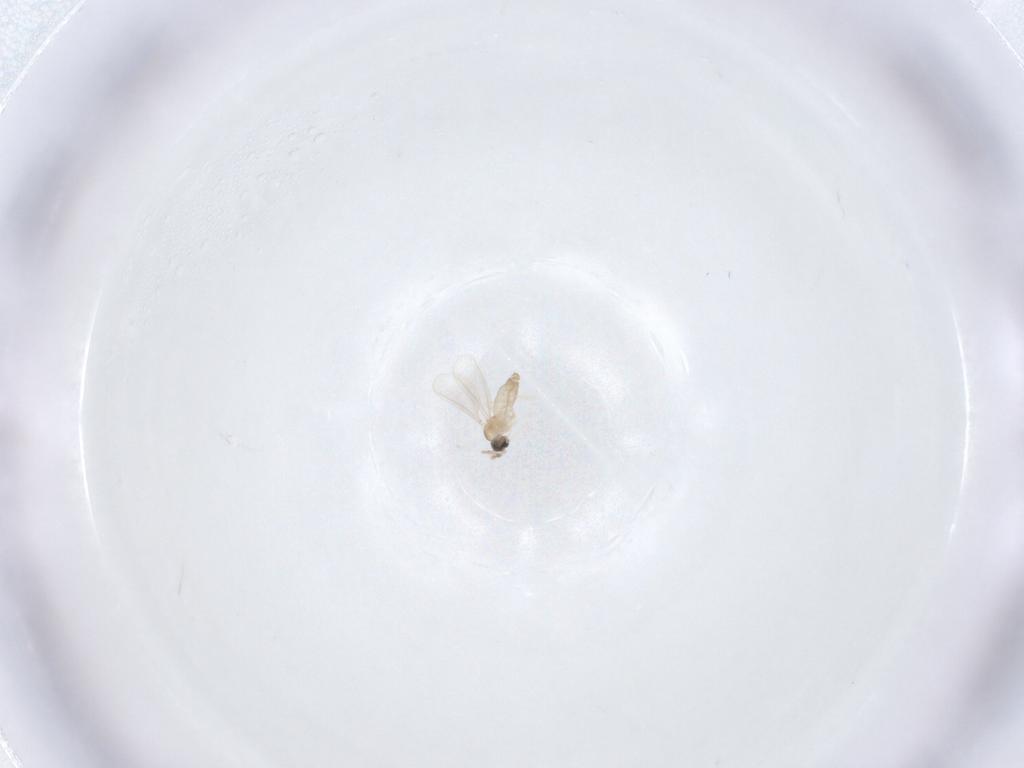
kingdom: Animalia
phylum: Arthropoda
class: Insecta
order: Diptera
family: Cecidomyiidae
